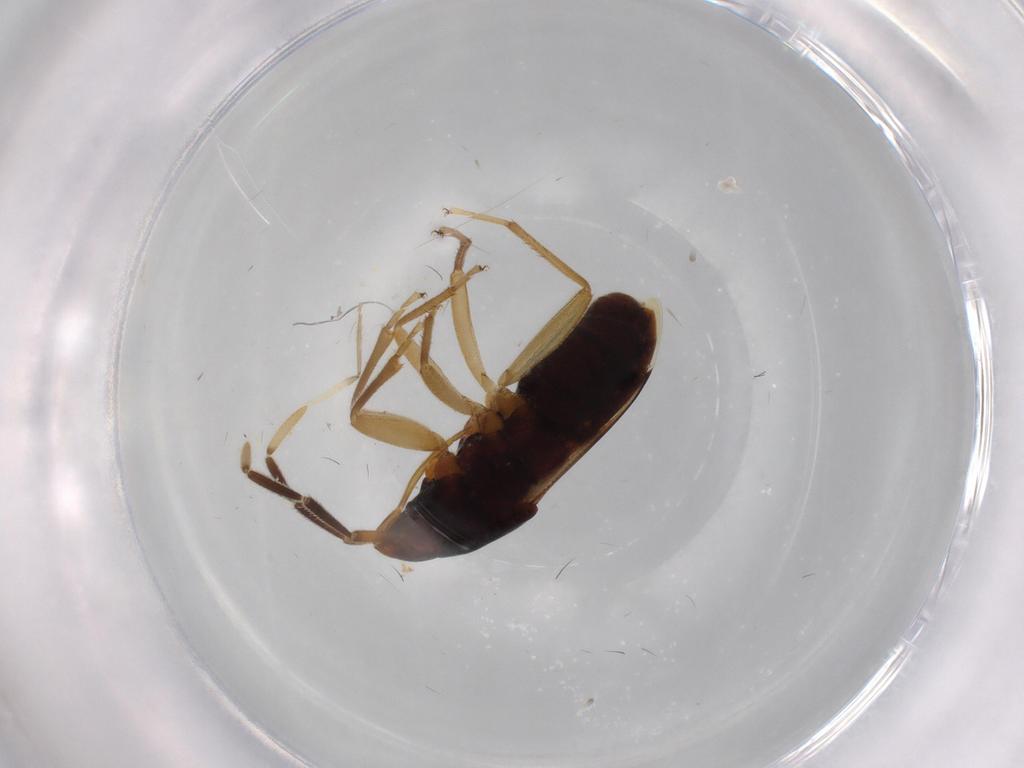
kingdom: Animalia
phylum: Arthropoda
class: Insecta
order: Hemiptera
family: Rhyparochromidae
